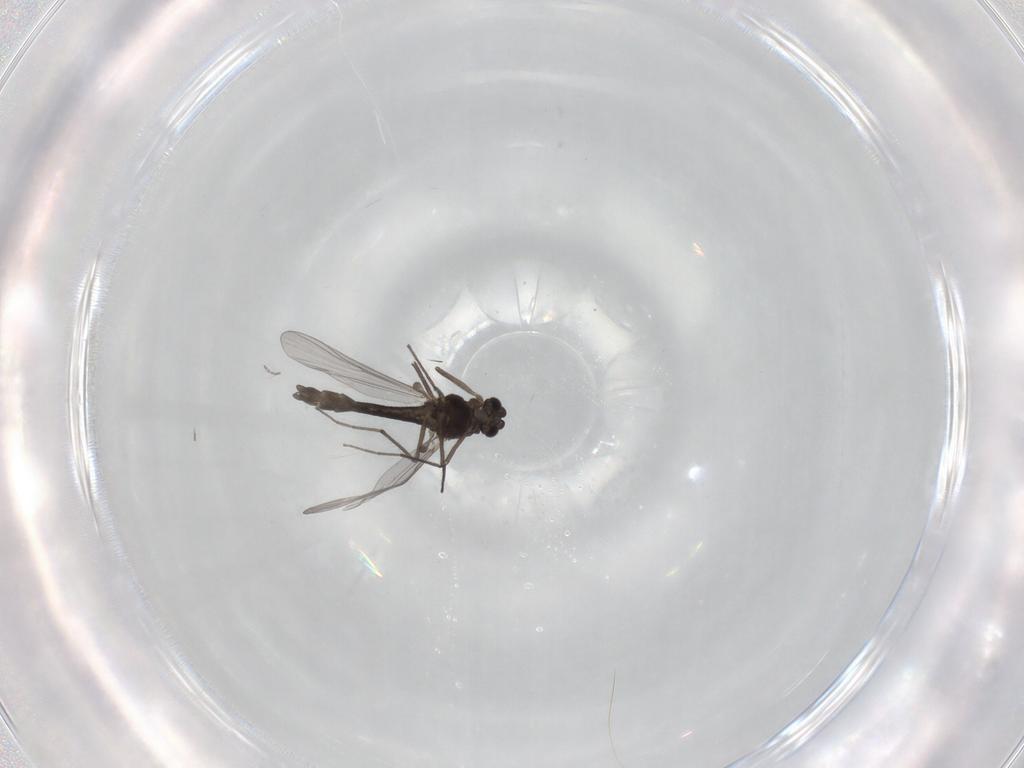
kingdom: Animalia
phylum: Arthropoda
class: Insecta
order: Diptera
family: Chironomidae
